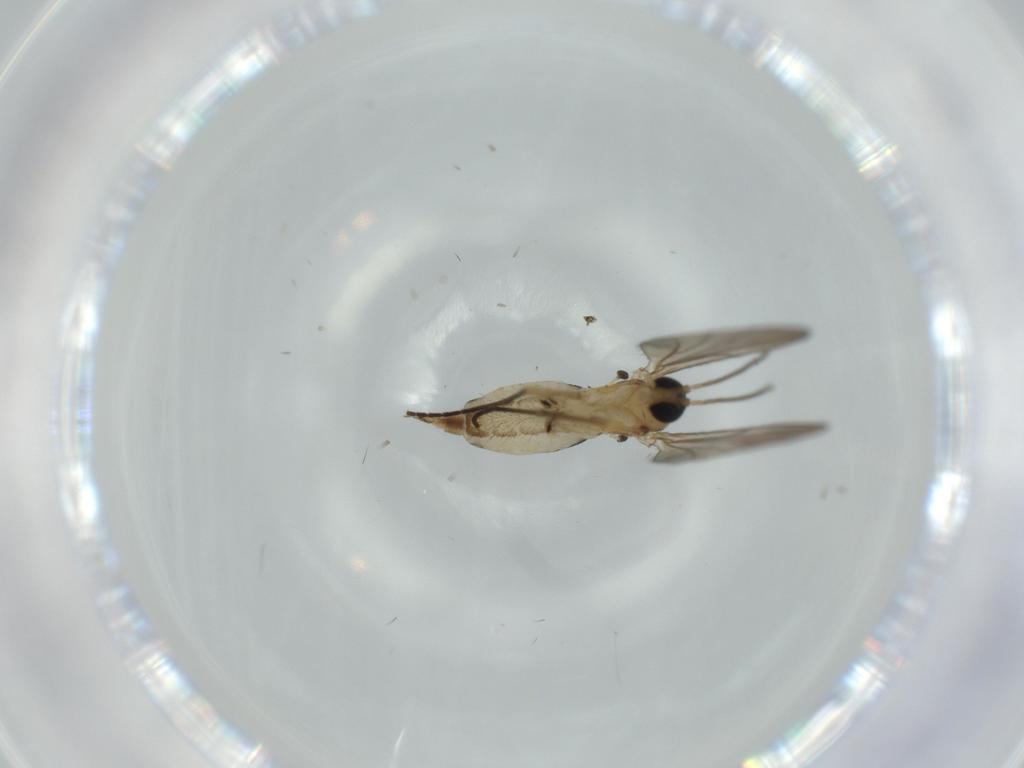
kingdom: Animalia
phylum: Arthropoda
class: Insecta
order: Diptera
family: Sciaridae
